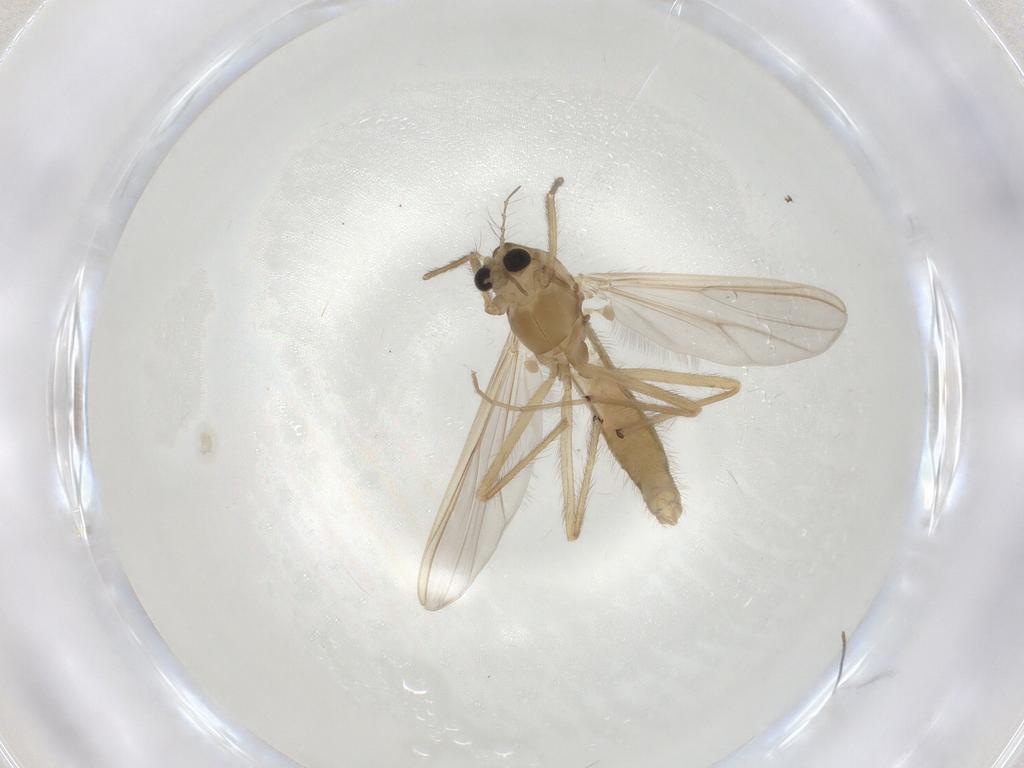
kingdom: Animalia
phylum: Arthropoda
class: Insecta
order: Diptera
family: Chironomidae
